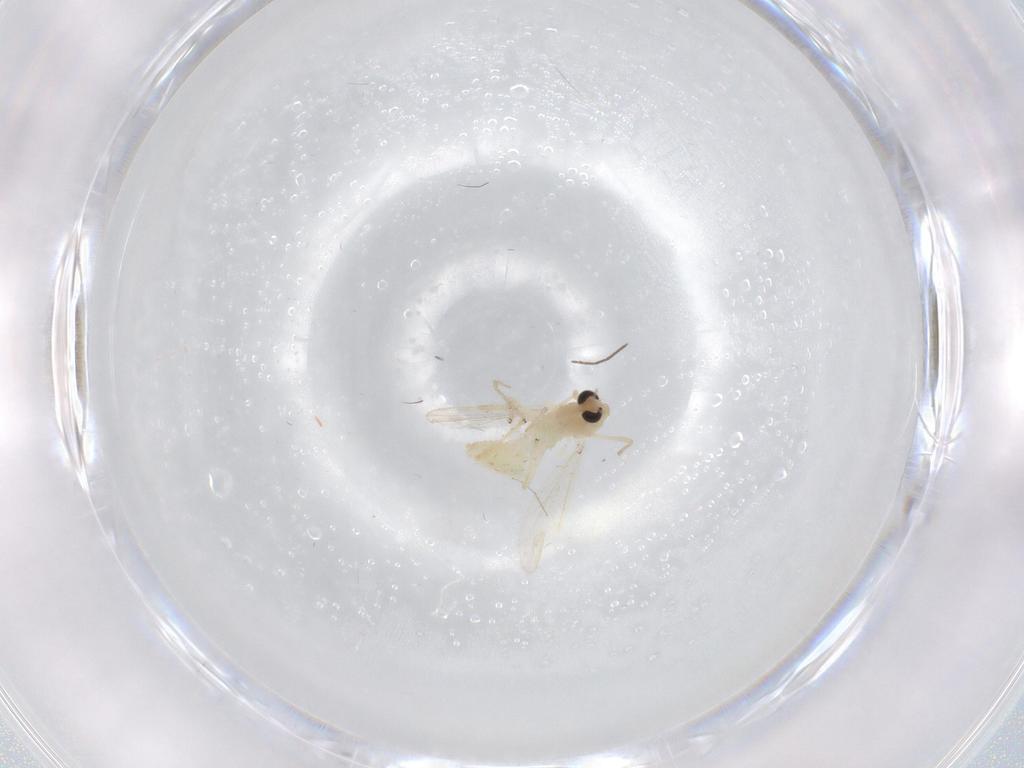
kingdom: Animalia
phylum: Arthropoda
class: Insecta
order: Diptera
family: Chironomidae
